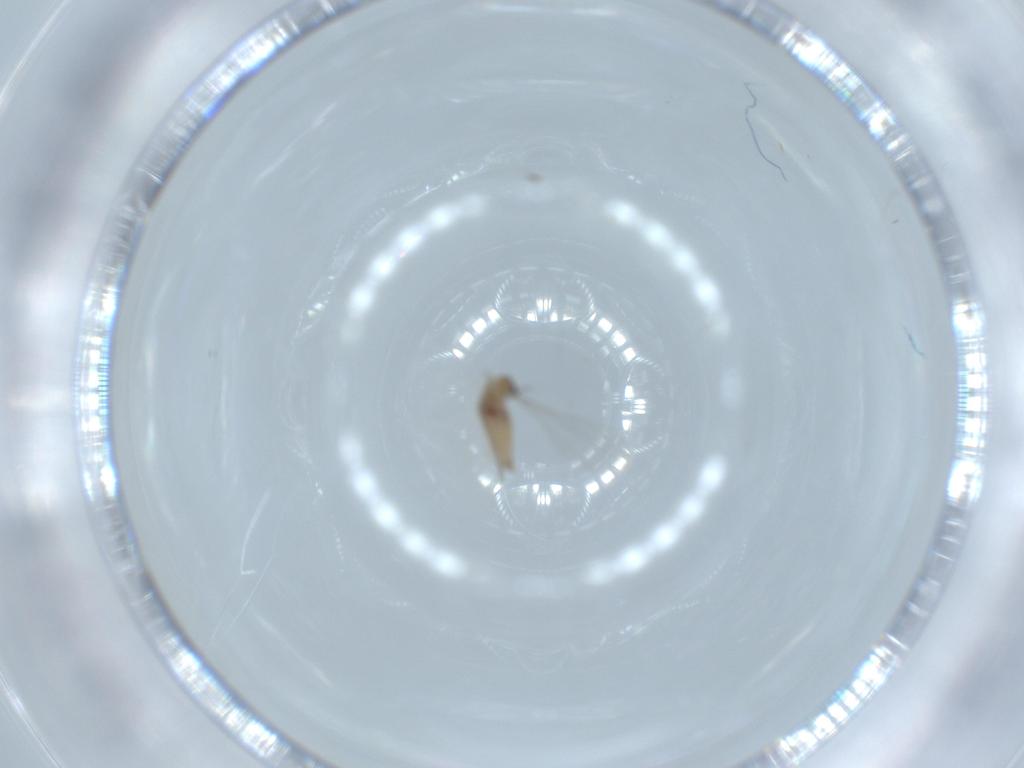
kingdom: Animalia
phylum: Arthropoda
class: Insecta
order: Diptera
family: Cecidomyiidae
